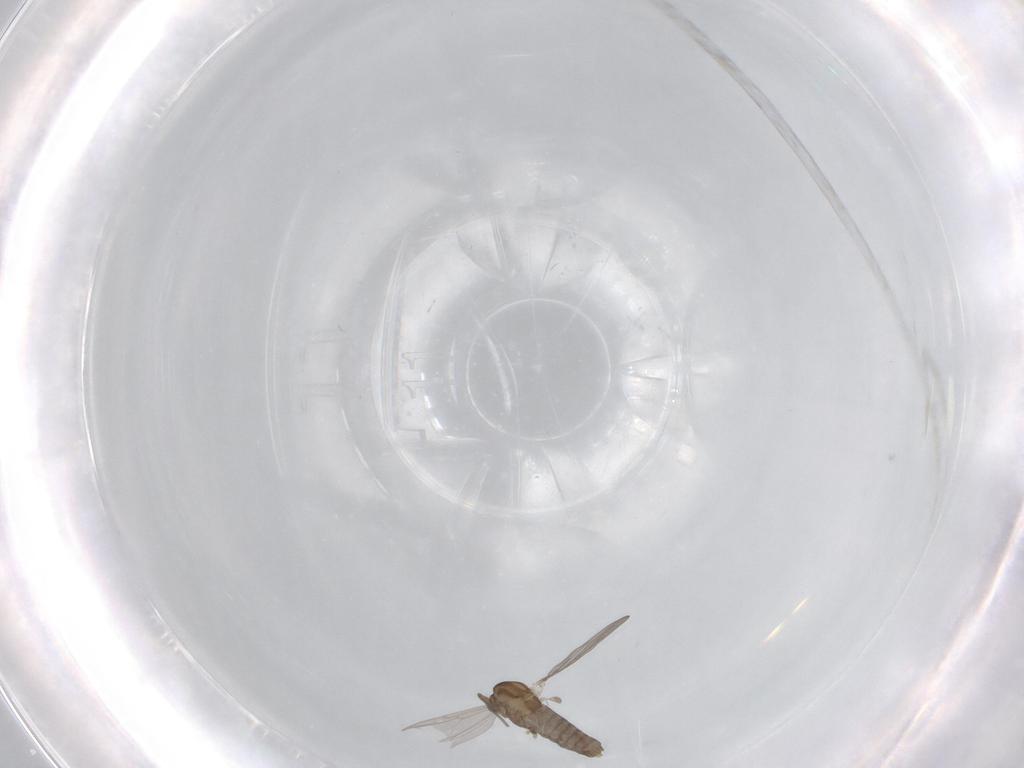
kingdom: Animalia
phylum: Arthropoda
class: Insecta
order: Diptera
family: Chironomidae
